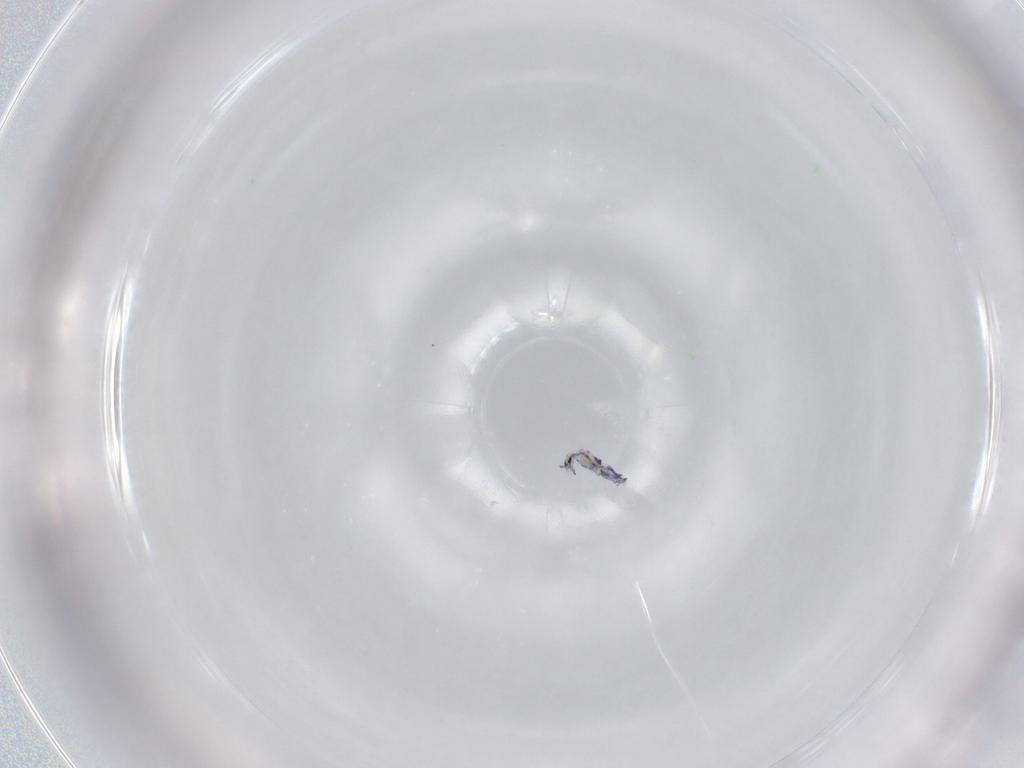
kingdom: Animalia
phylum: Arthropoda
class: Collembola
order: Entomobryomorpha
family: Entomobryidae
